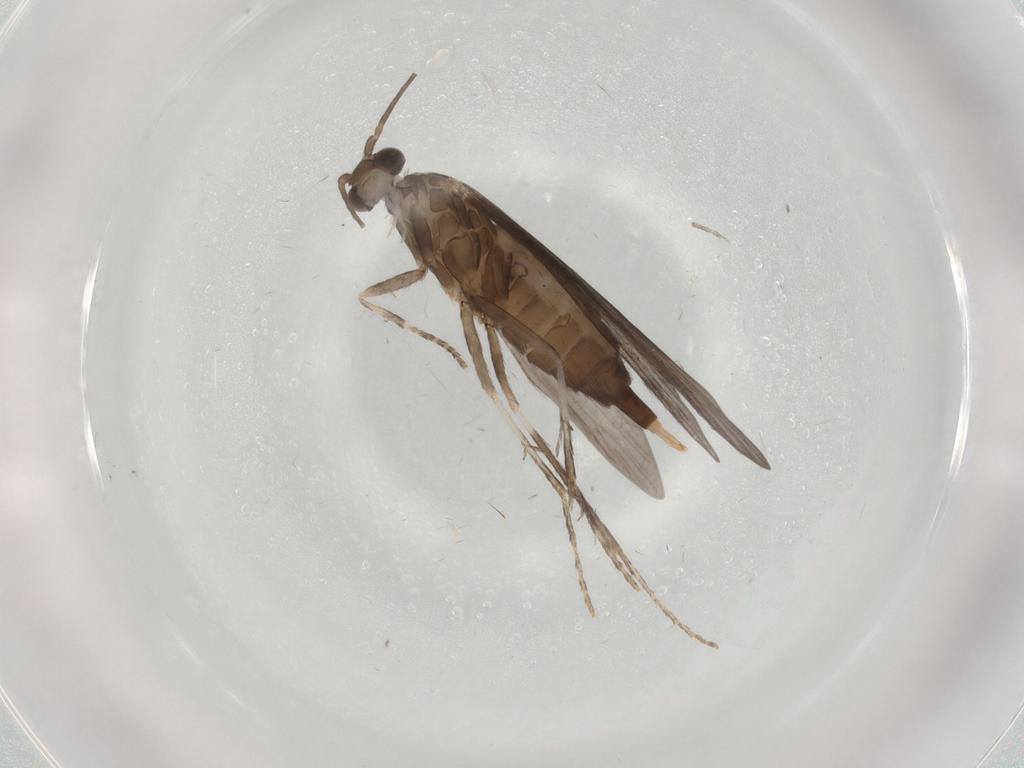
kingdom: Animalia
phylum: Arthropoda
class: Insecta
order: Trichoptera
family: Xiphocentronidae
